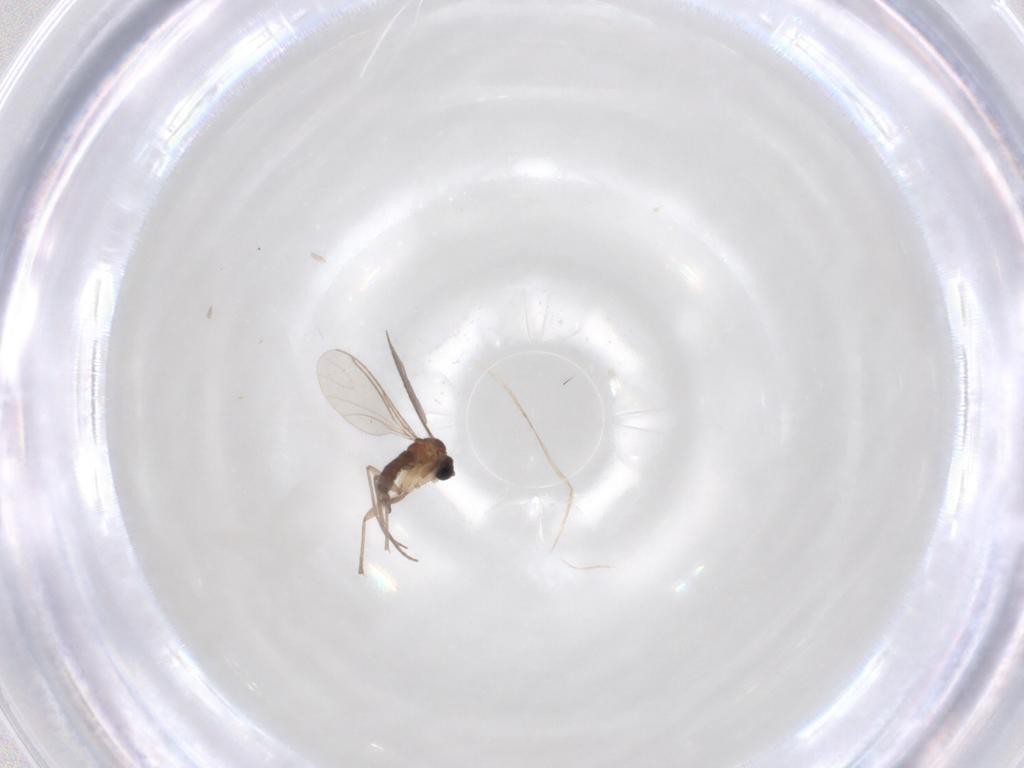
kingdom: Animalia
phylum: Arthropoda
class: Insecta
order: Diptera
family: Sciaridae
